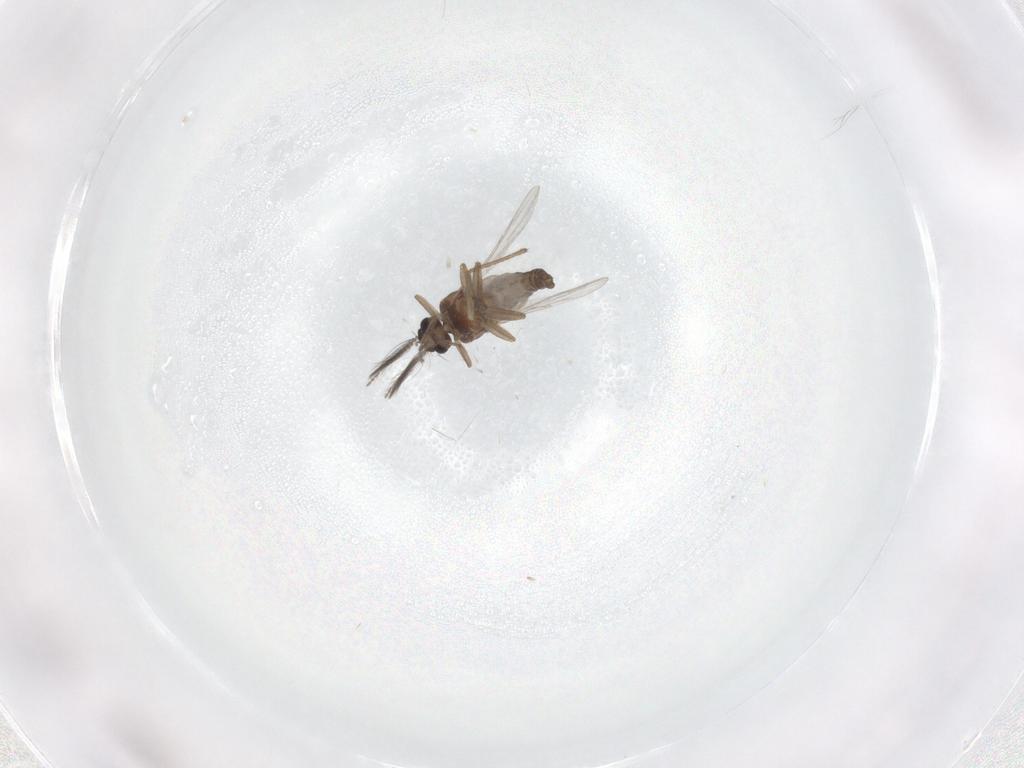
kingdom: Animalia
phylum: Arthropoda
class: Insecta
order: Diptera
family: Ceratopogonidae
